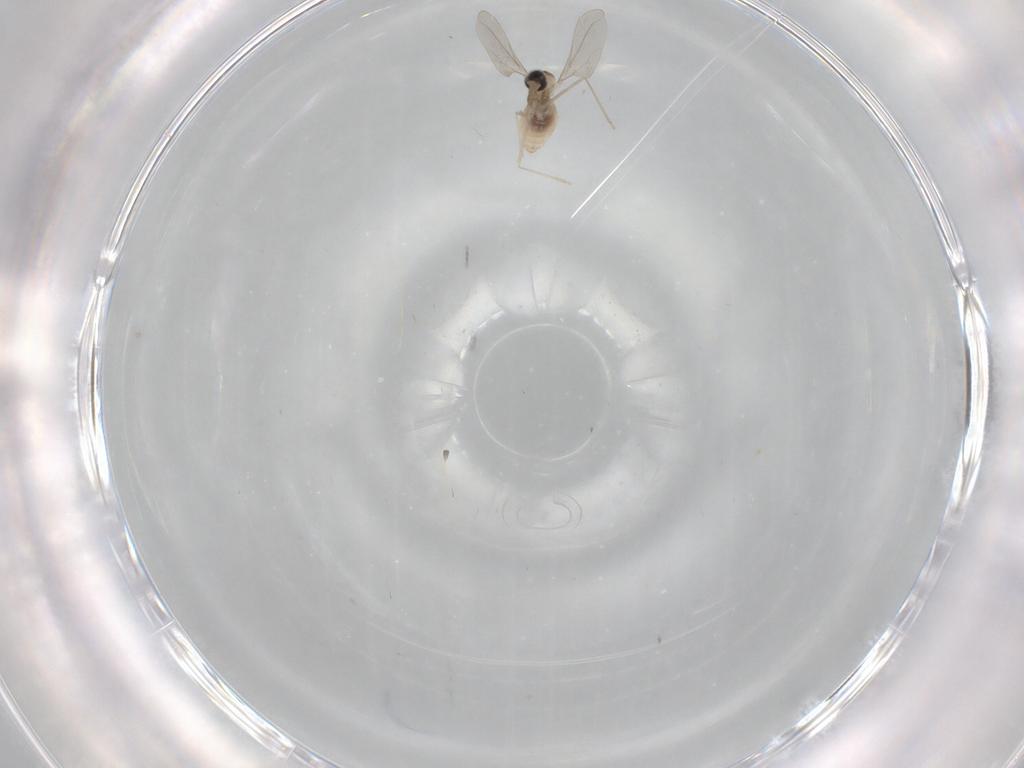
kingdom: Animalia
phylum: Arthropoda
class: Insecta
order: Diptera
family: Cecidomyiidae
